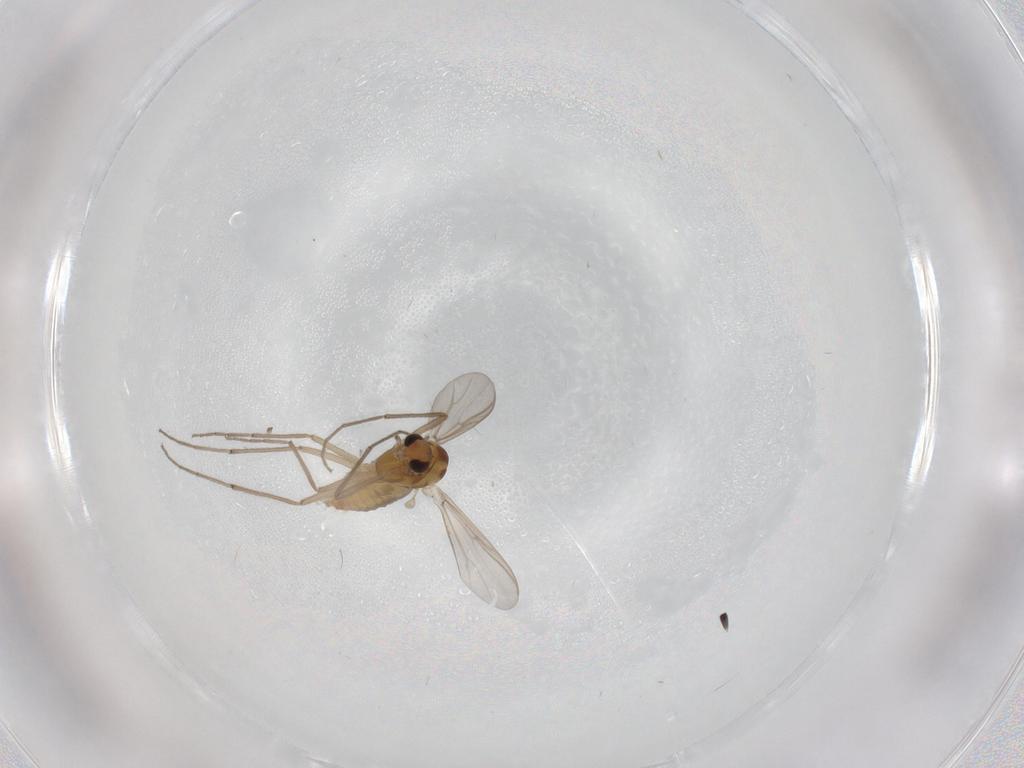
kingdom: Animalia
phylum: Arthropoda
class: Insecta
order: Diptera
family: Chironomidae
